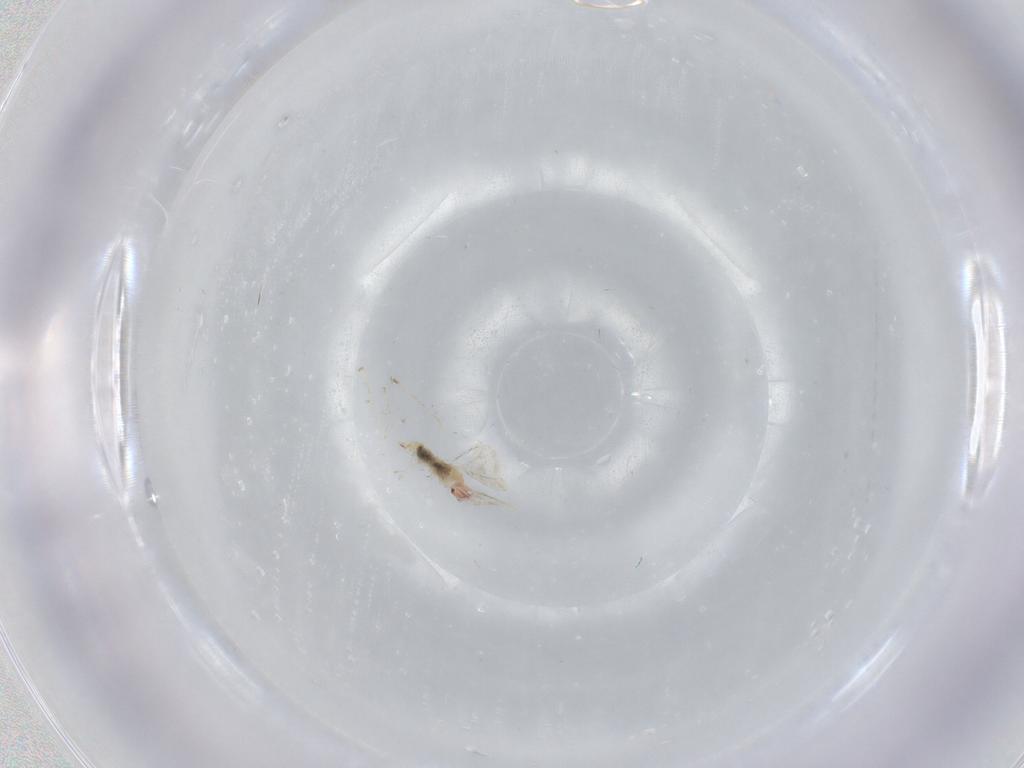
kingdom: Animalia
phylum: Arthropoda
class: Insecta
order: Diptera
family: Cecidomyiidae
